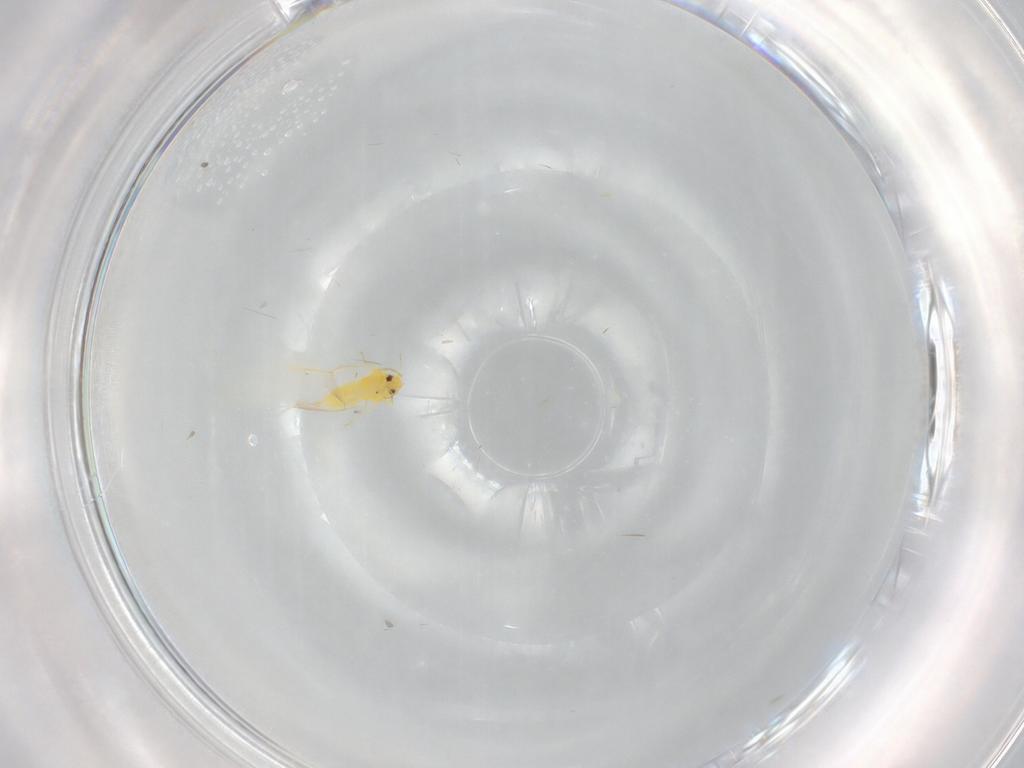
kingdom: Animalia
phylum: Arthropoda
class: Insecta
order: Hemiptera
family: Aleyrodidae
